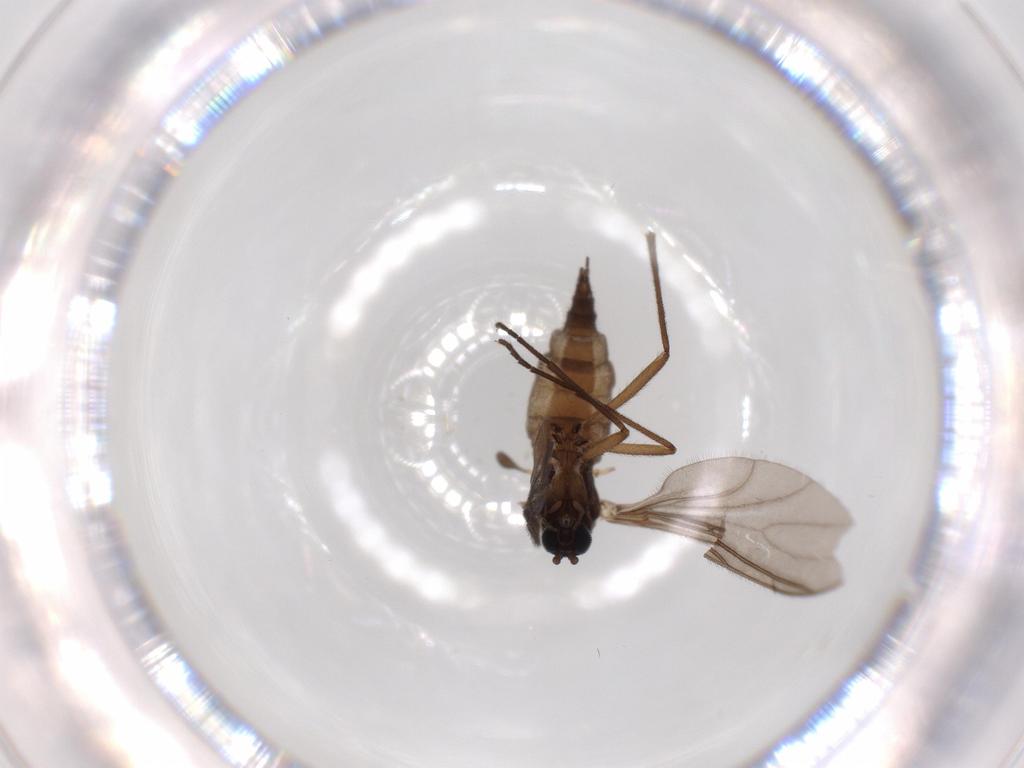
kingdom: Animalia
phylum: Arthropoda
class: Insecta
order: Diptera
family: Sciaridae
